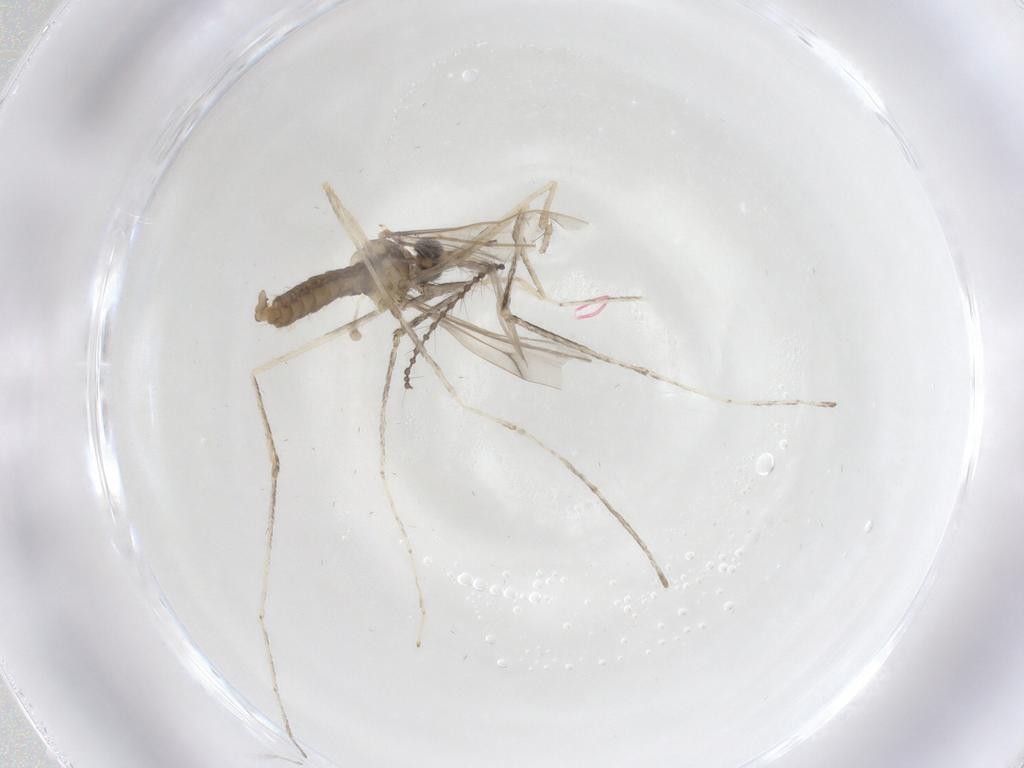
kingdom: Animalia
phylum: Arthropoda
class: Insecta
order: Diptera
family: Cecidomyiidae
